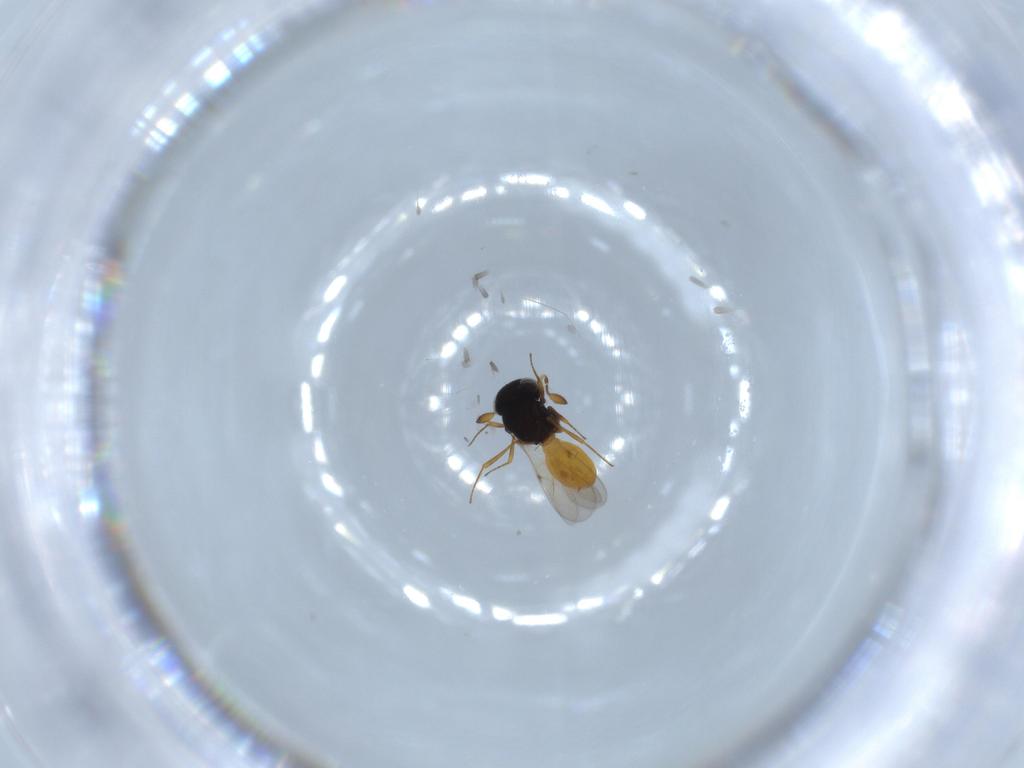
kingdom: Animalia
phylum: Arthropoda
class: Insecta
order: Hymenoptera
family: Scelionidae
